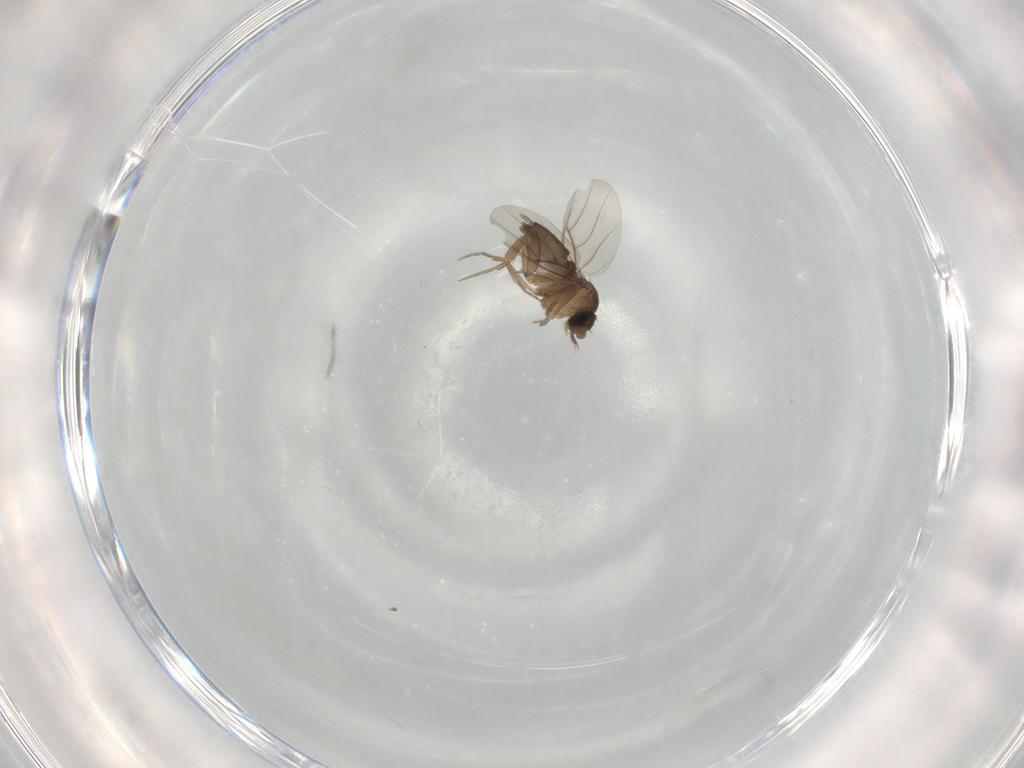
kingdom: Animalia
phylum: Arthropoda
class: Insecta
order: Diptera
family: Phoridae
